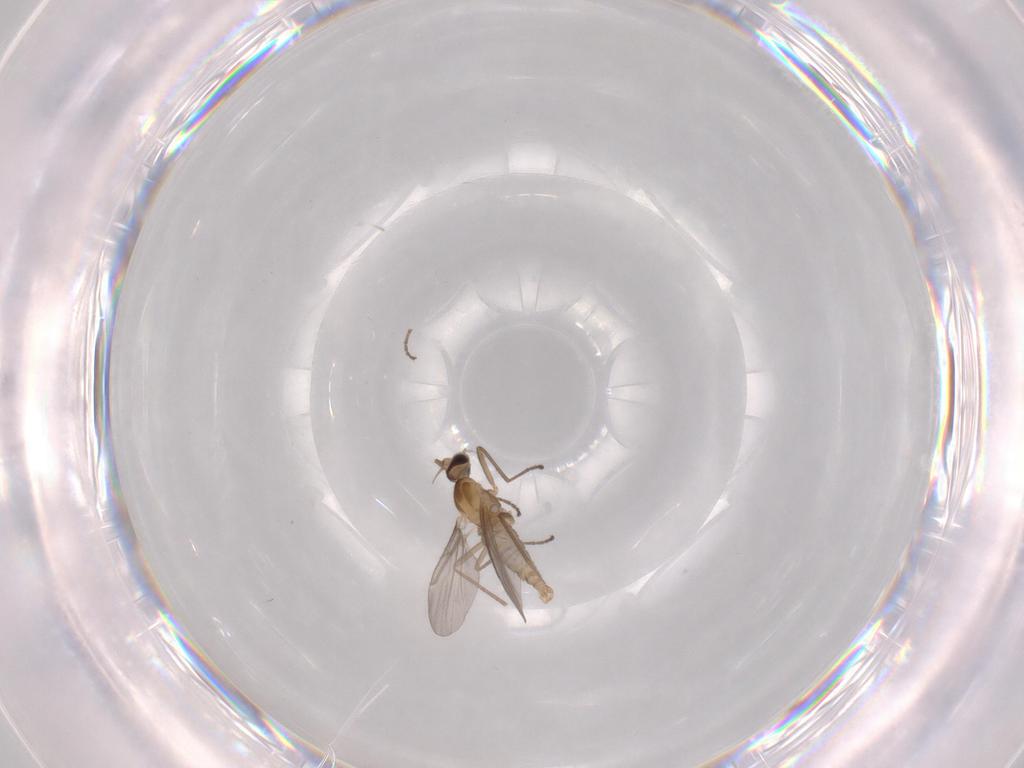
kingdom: Animalia
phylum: Arthropoda
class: Insecta
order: Diptera
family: Cecidomyiidae
